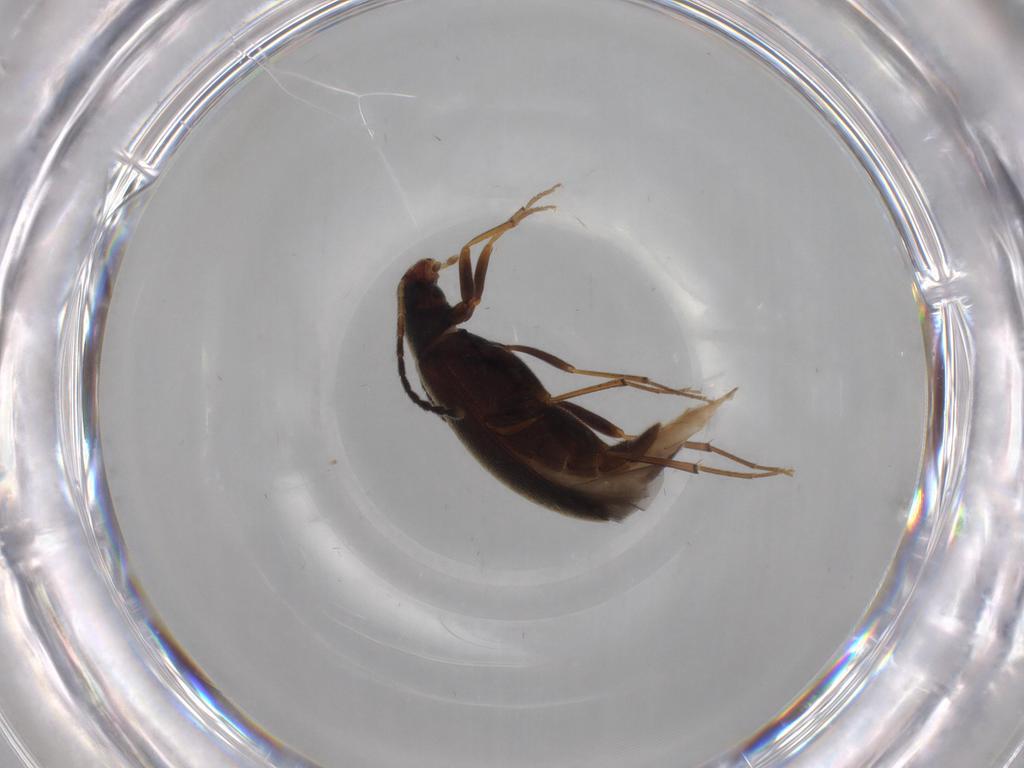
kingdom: Animalia
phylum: Arthropoda
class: Insecta
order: Coleoptera
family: Melandryidae
